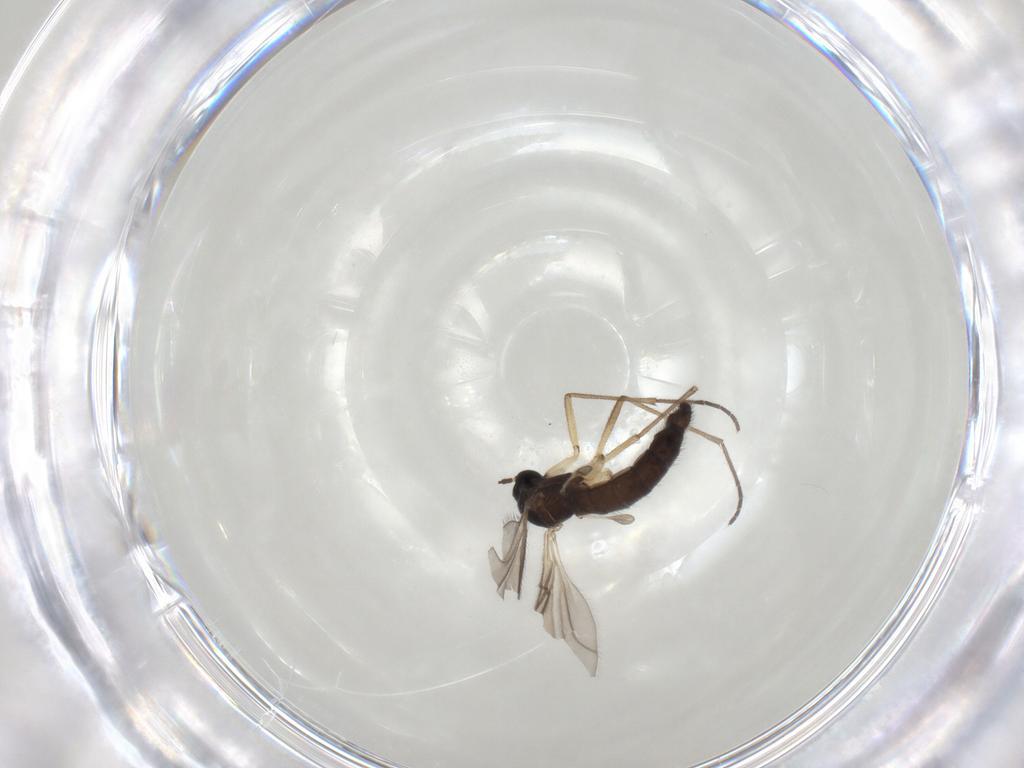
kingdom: Animalia
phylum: Arthropoda
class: Insecta
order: Diptera
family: Sciaridae
